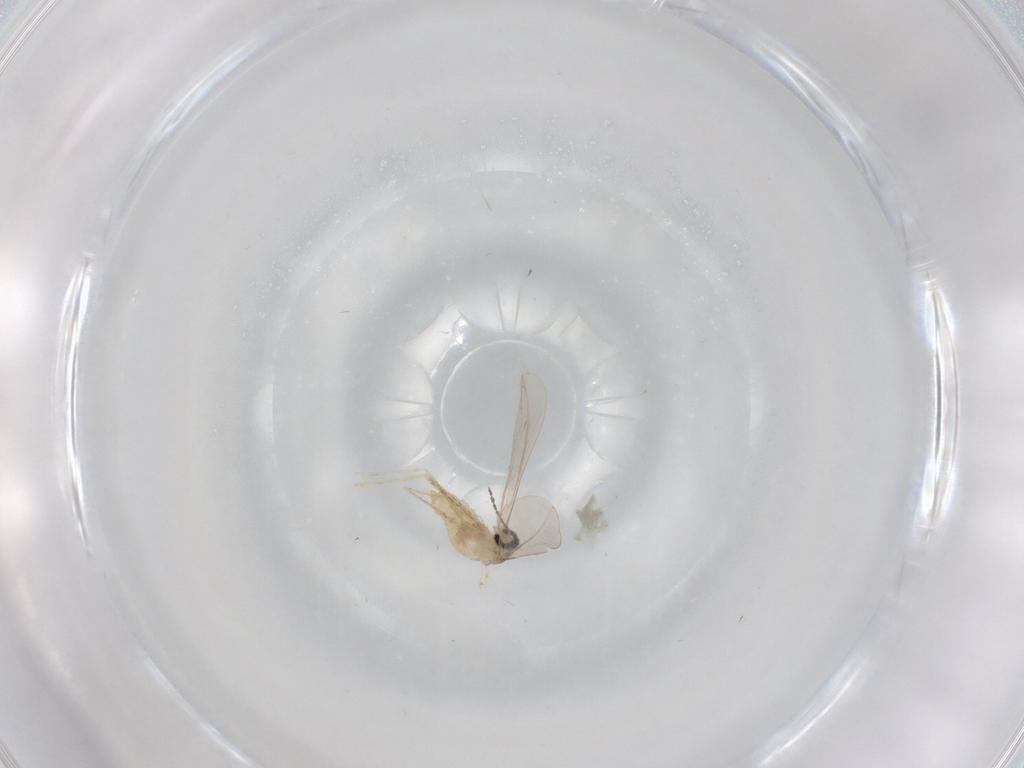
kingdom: Animalia
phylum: Arthropoda
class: Insecta
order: Diptera
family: Cecidomyiidae
